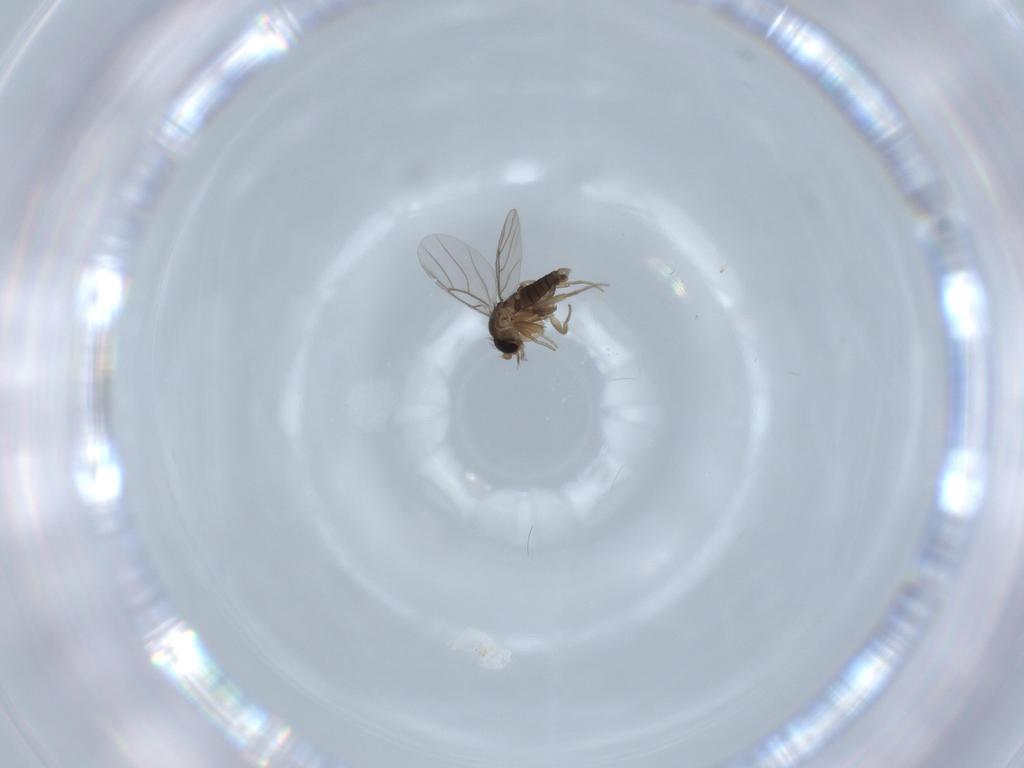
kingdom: Animalia
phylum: Arthropoda
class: Insecta
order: Diptera
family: Phoridae
